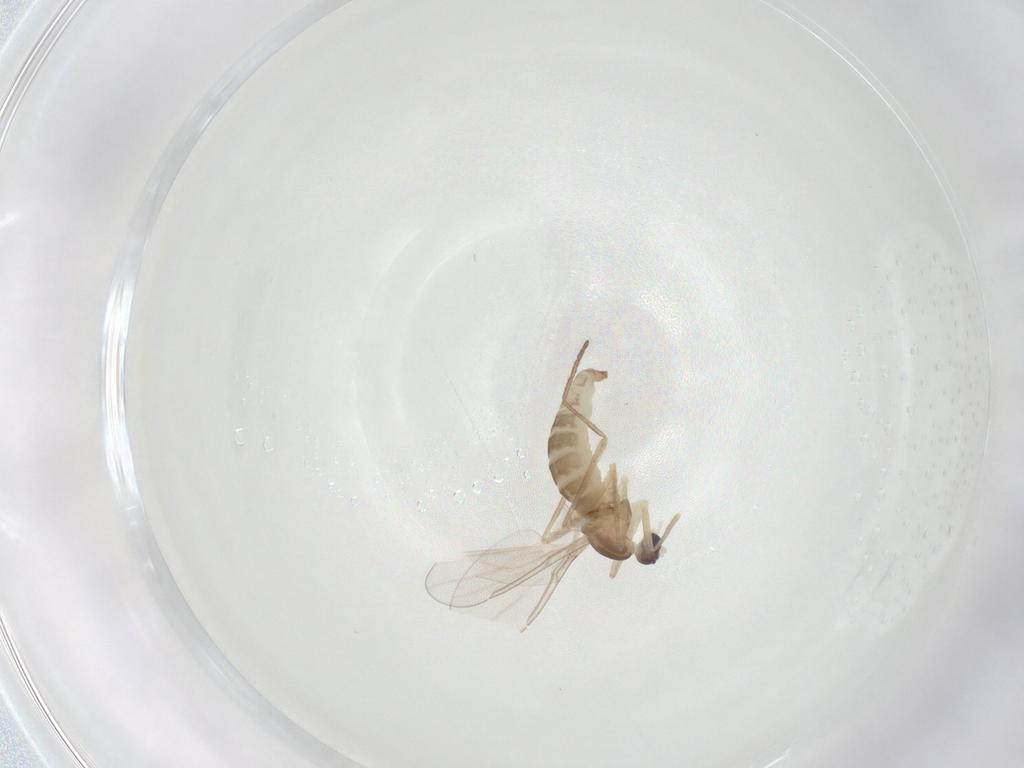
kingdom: Animalia
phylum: Arthropoda
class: Insecta
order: Diptera
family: Cecidomyiidae
